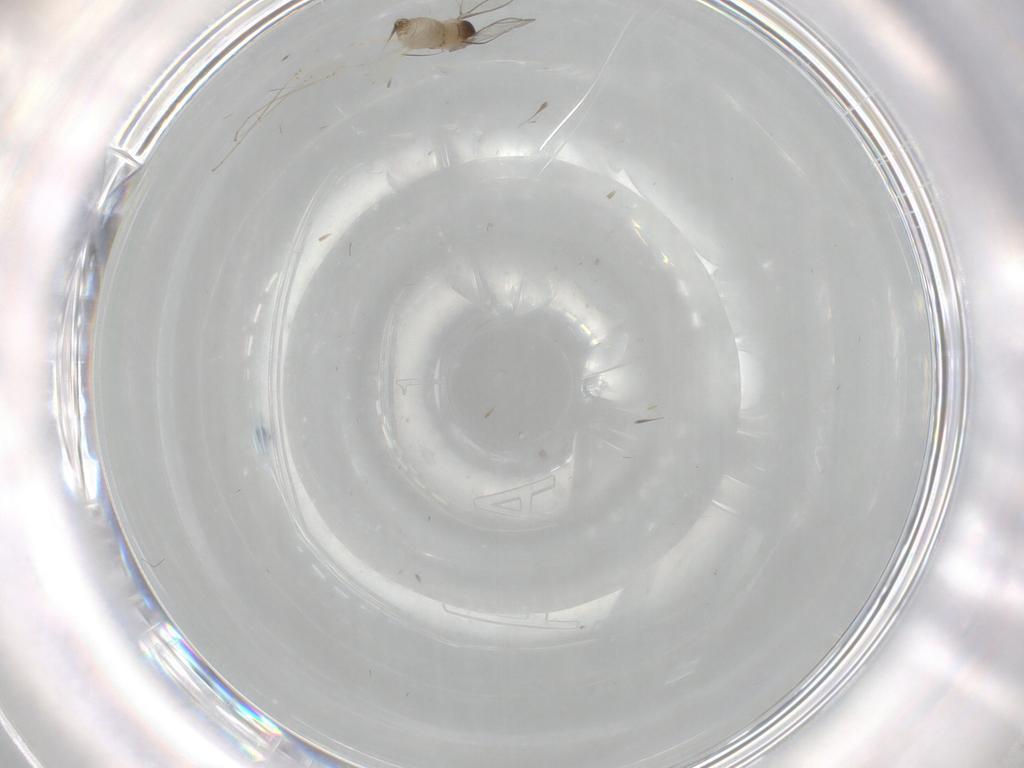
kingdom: Animalia
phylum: Arthropoda
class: Insecta
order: Diptera
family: Cecidomyiidae
